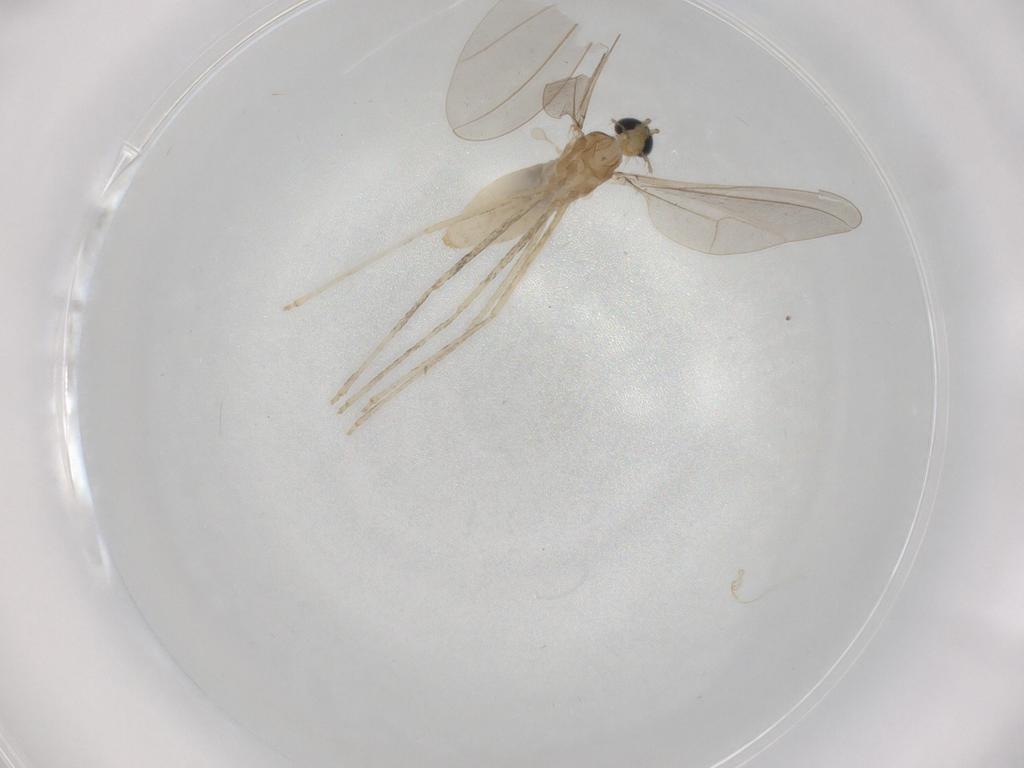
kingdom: Animalia
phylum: Arthropoda
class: Insecta
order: Diptera
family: Cecidomyiidae
